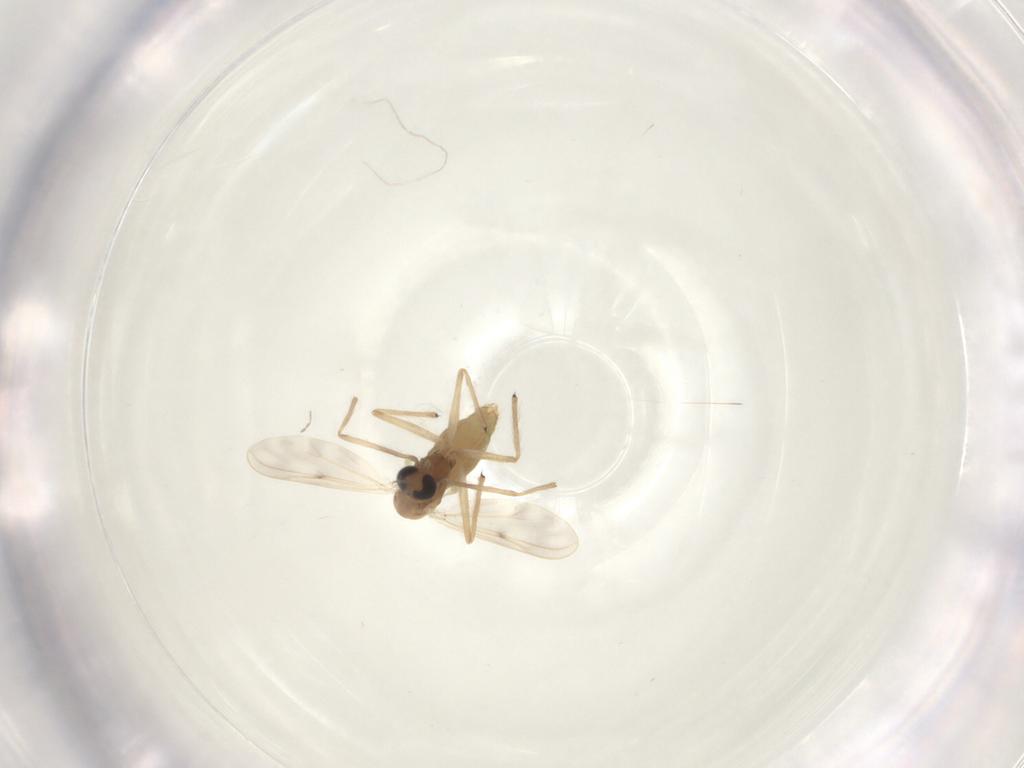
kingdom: Animalia
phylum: Arthropoda
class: Insecta
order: Diptera
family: Chironomidae
